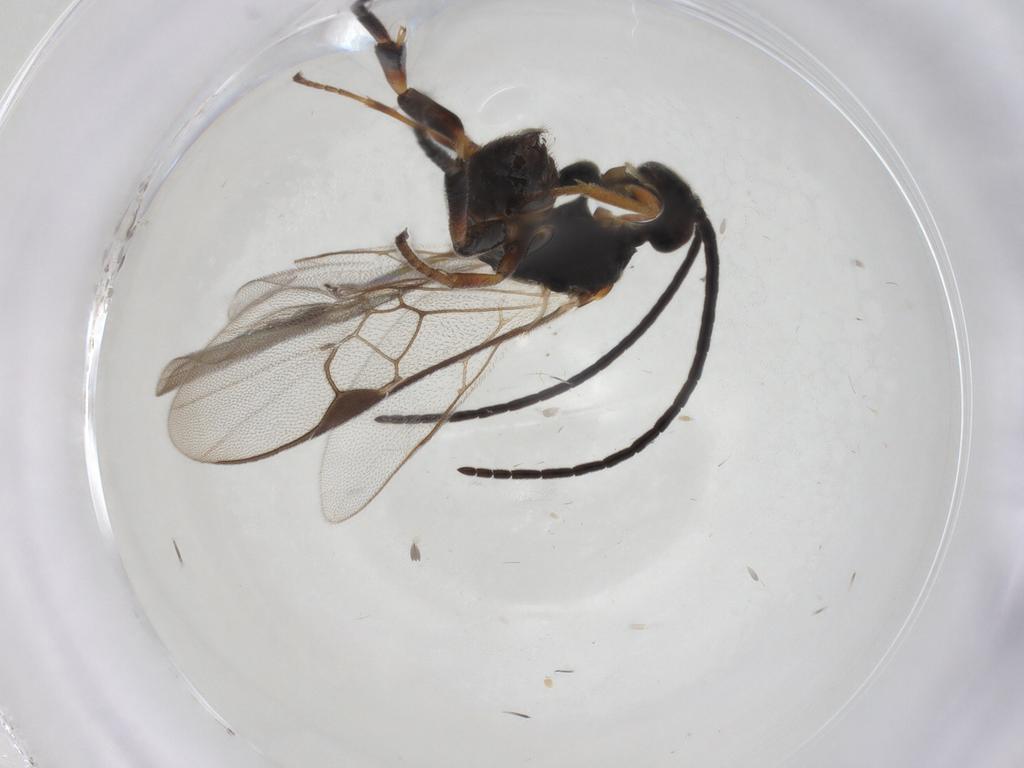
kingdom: Animalia
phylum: Arthropoda
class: Insecta
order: Hymenoptera
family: Braconidae
